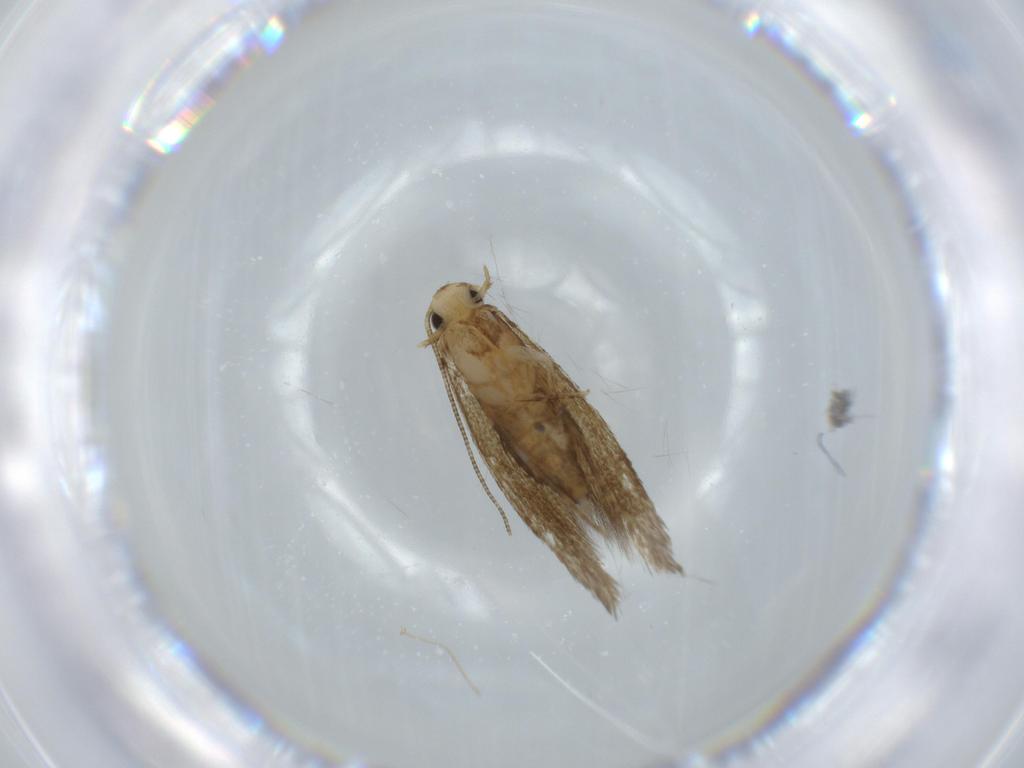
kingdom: Animalia
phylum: Arthropoda
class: Insecta
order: Lepidoptera
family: Tineidae
